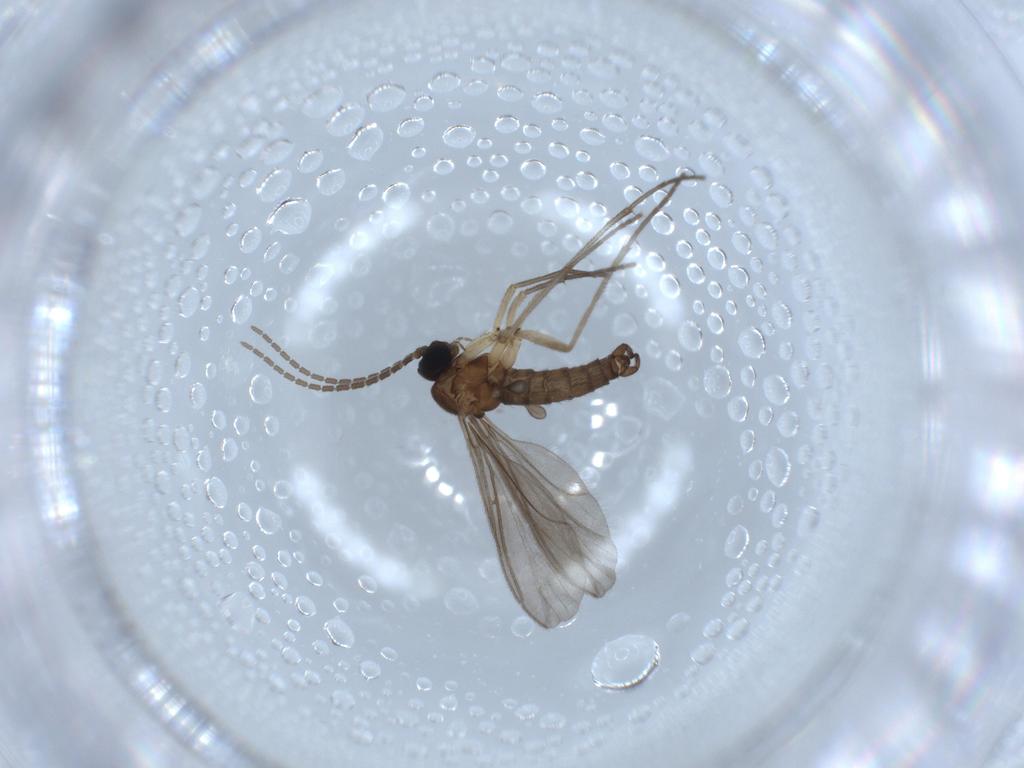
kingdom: Animalia
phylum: Arthropoda
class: Insecta
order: Diptera
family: Sciaridae
